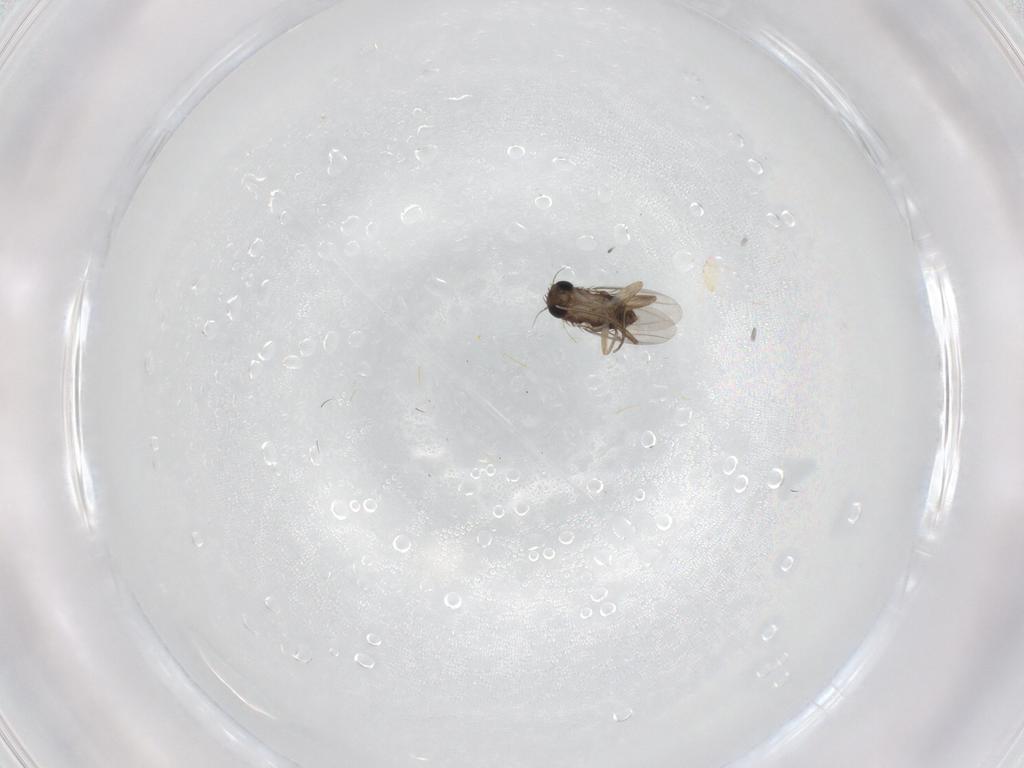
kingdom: Animalia
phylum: Arthropoda
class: Insecta
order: Diptera
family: Phoridae
